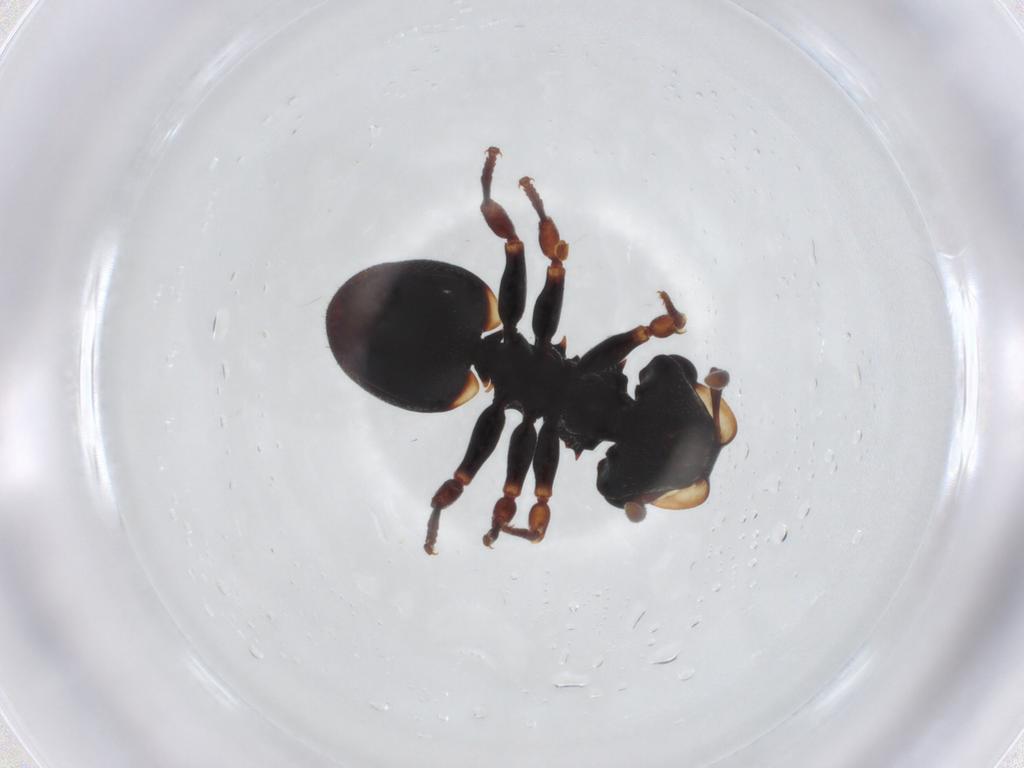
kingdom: Animalia
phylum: Arthropoda
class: Insecta
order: Hymenoptera
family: Formicidae
